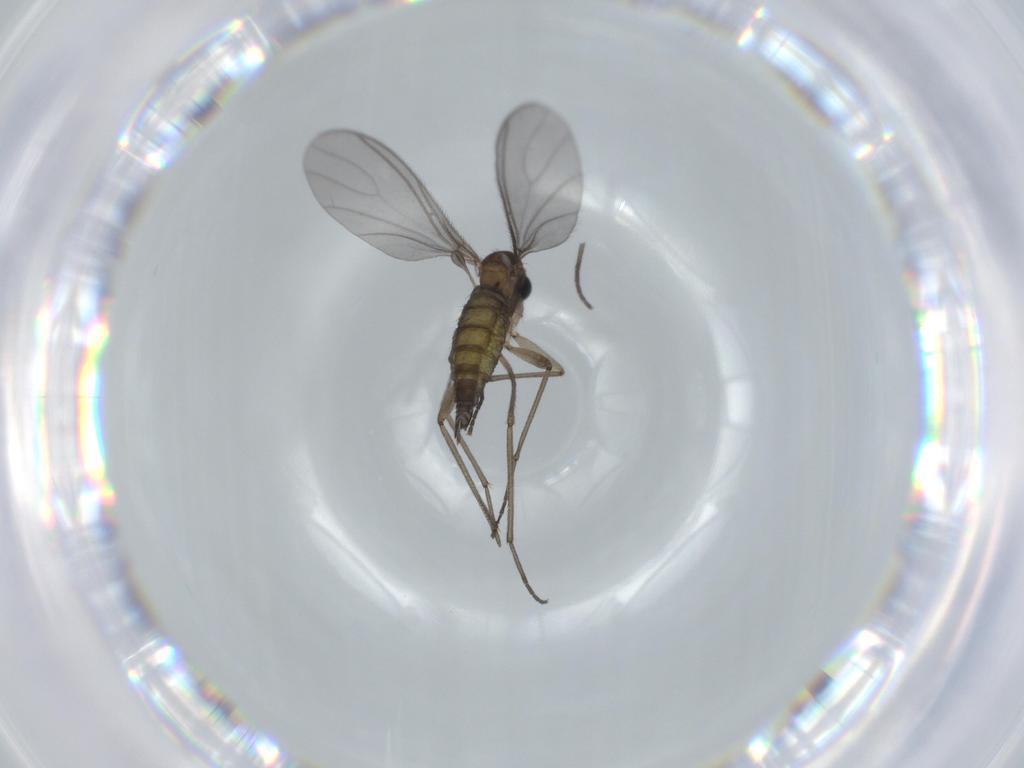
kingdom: Animalia
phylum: Arthropoda
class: Insecta
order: Diptera
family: Sciaridae
